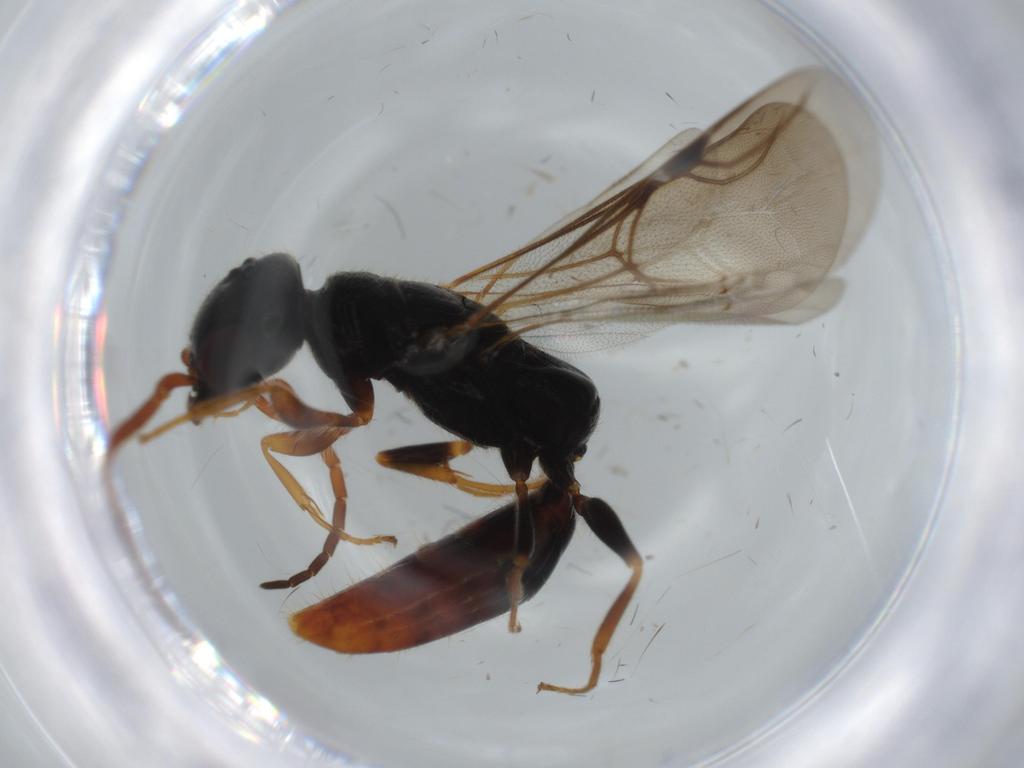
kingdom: Animalia
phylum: Arthropoda
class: Insecta
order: Hymenoptera
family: Bethylidae
